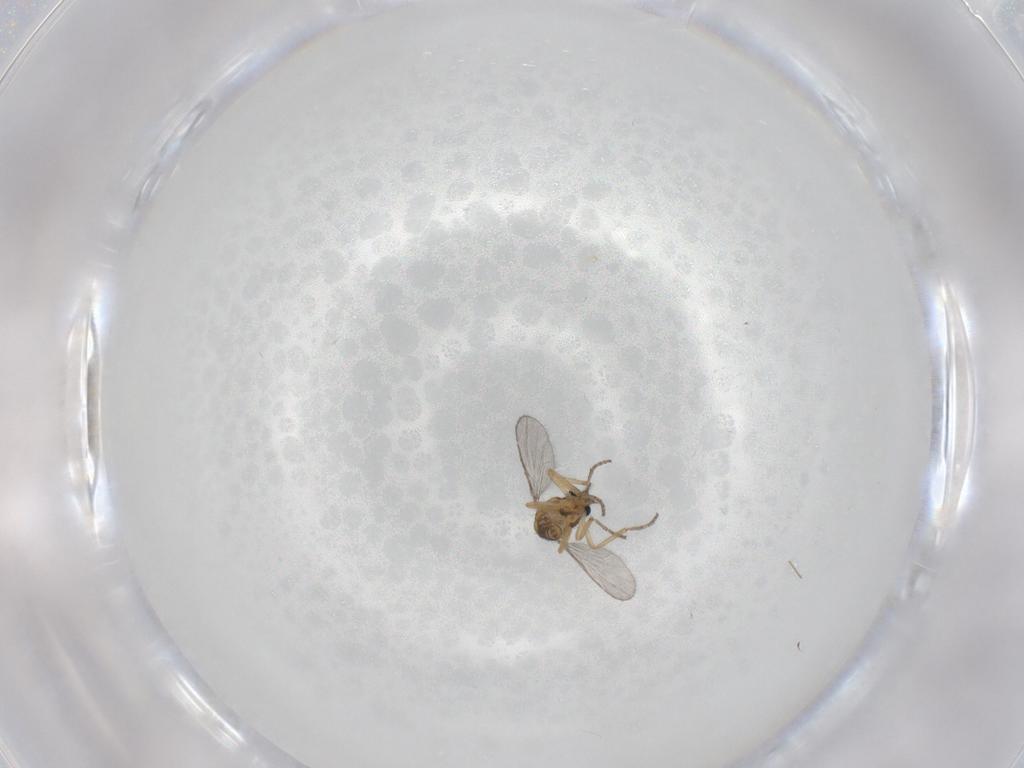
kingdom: Animalia
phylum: Arthropoda
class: Insecta
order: Diptera
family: Ceratopogonidae
